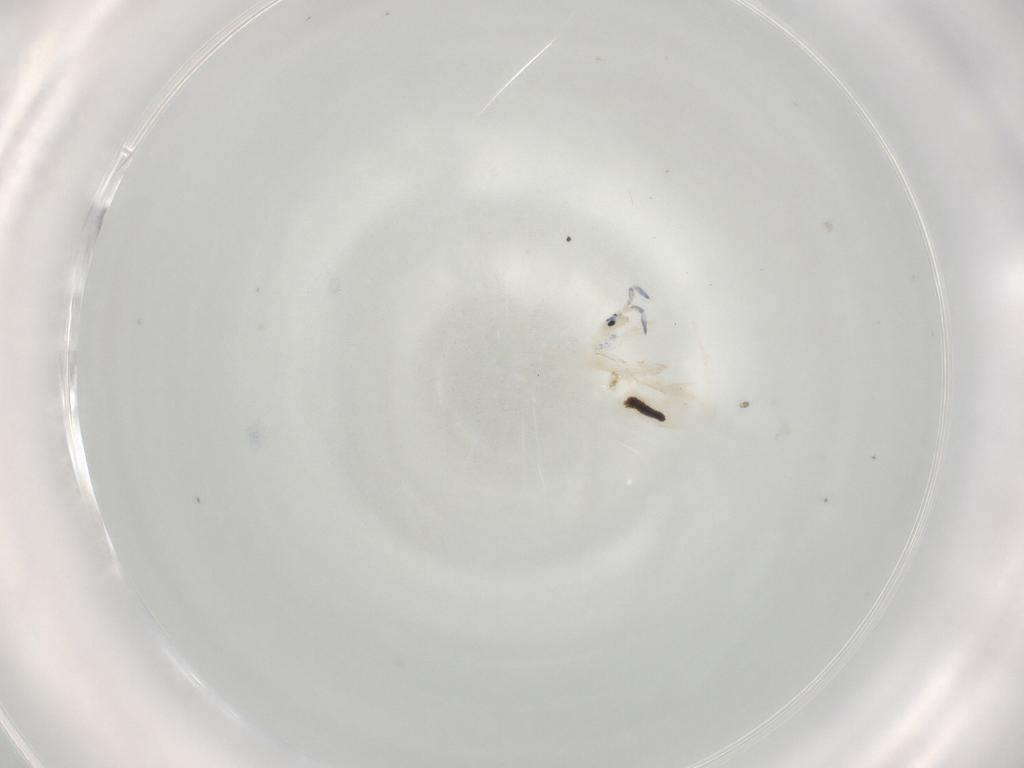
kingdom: Animalia
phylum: Arthropoda
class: Collembola
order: Entomobryomorpha
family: Entomobryidae
